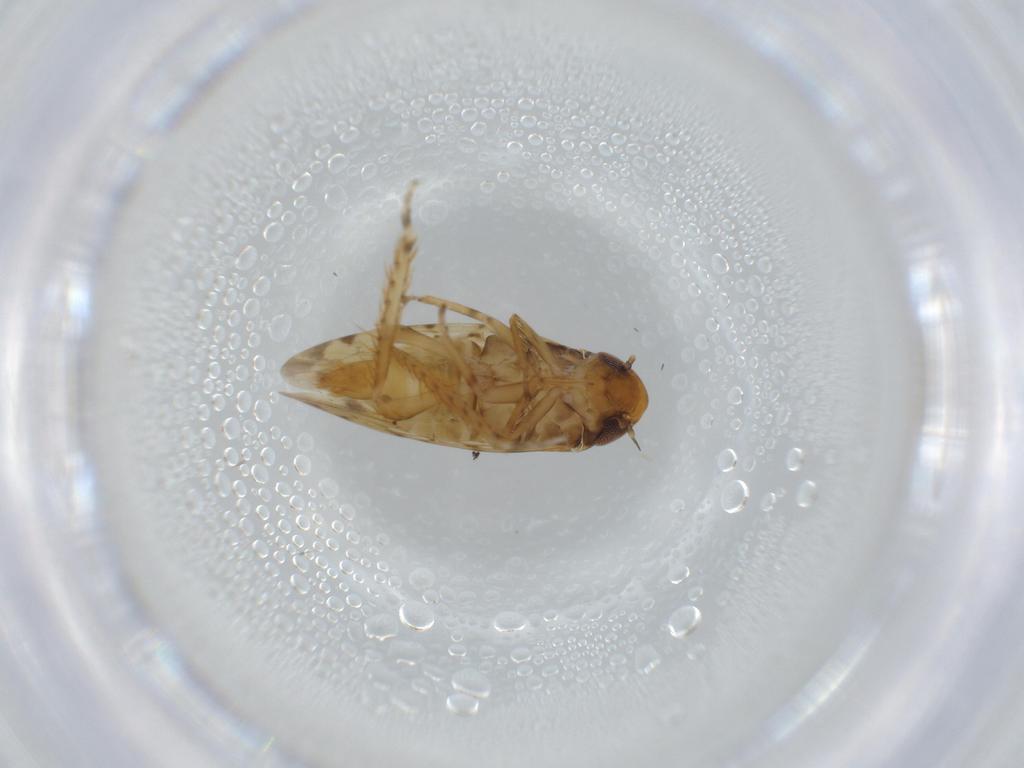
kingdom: Animalia
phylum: Arthropoda
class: Insecta
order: Hemiptera
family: Cicadellidae
